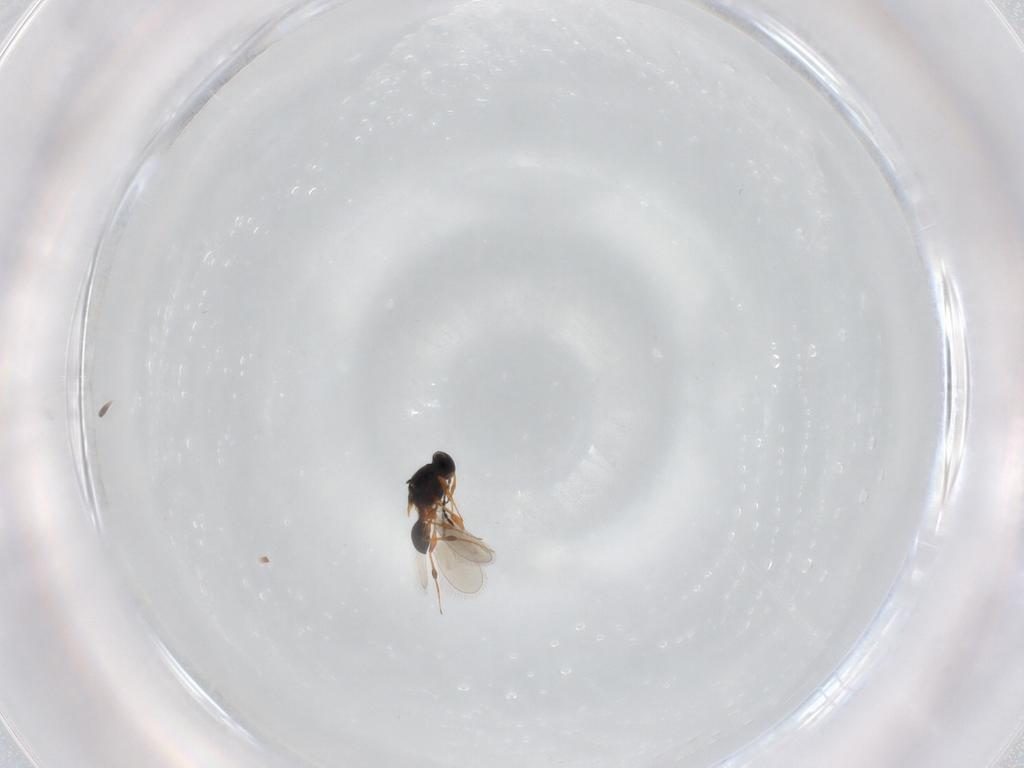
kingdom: Animalia
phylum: Arthropoda
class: Insecta
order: Hymenoptera
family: Platygastridae
